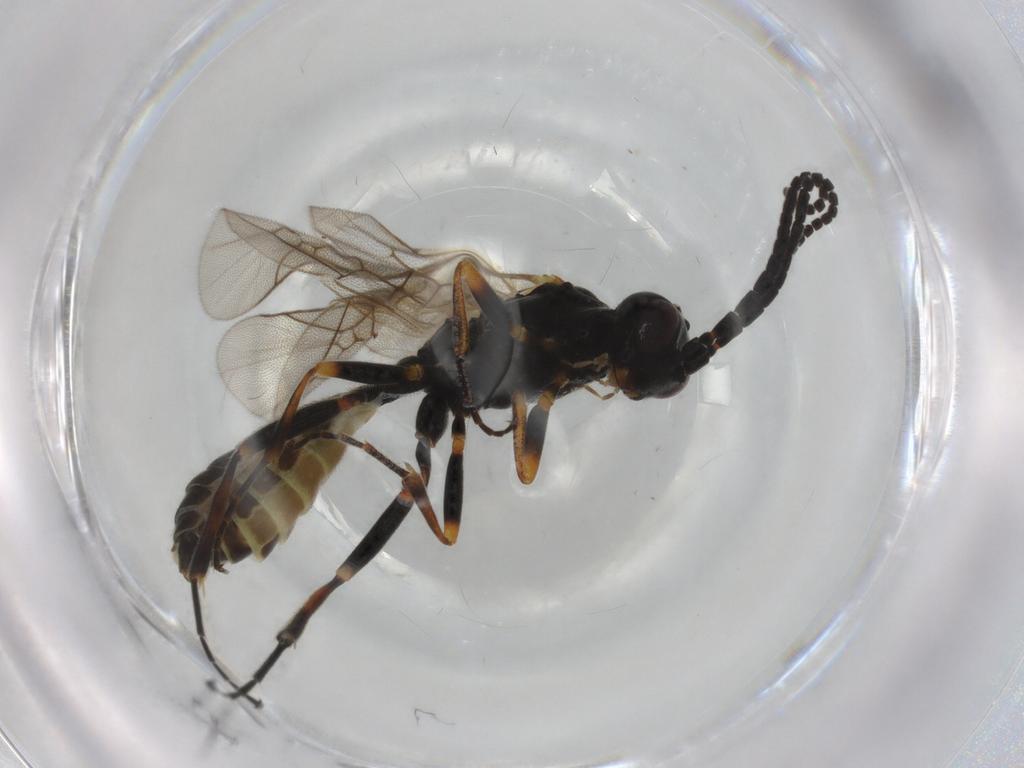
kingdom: Animalia
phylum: Arthropoda
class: Insecta
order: Hymenoptera
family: Ichneumonidae
